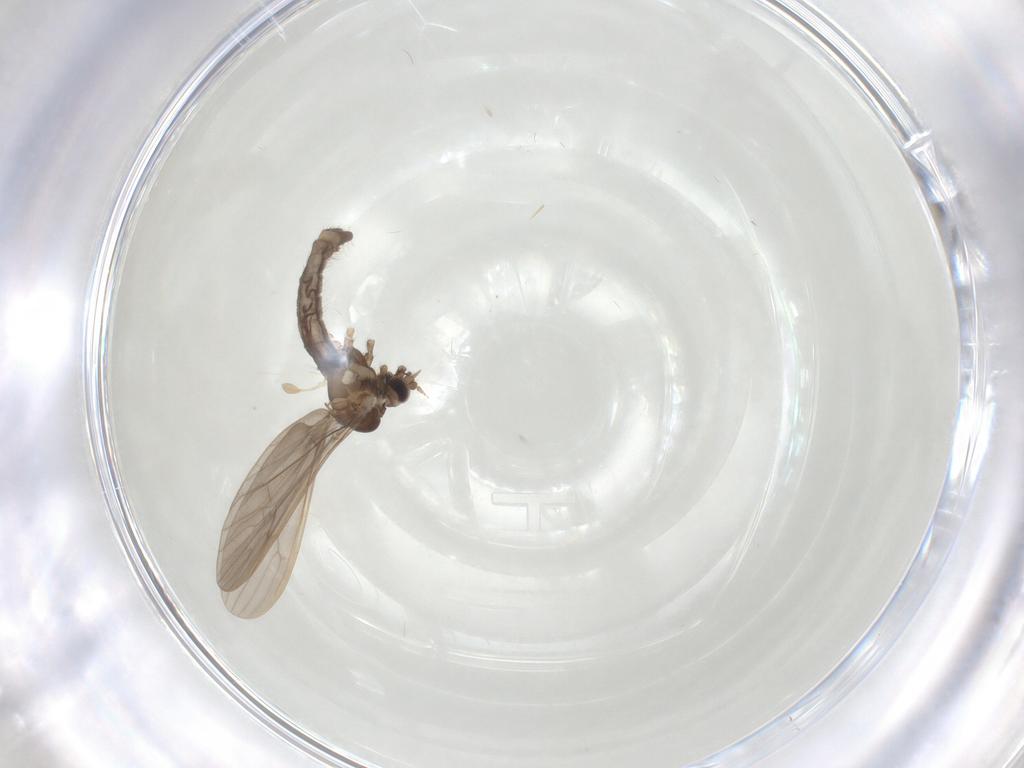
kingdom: Animalia
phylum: Arthropoda
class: Insecta
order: Diptera
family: Limoniidae
